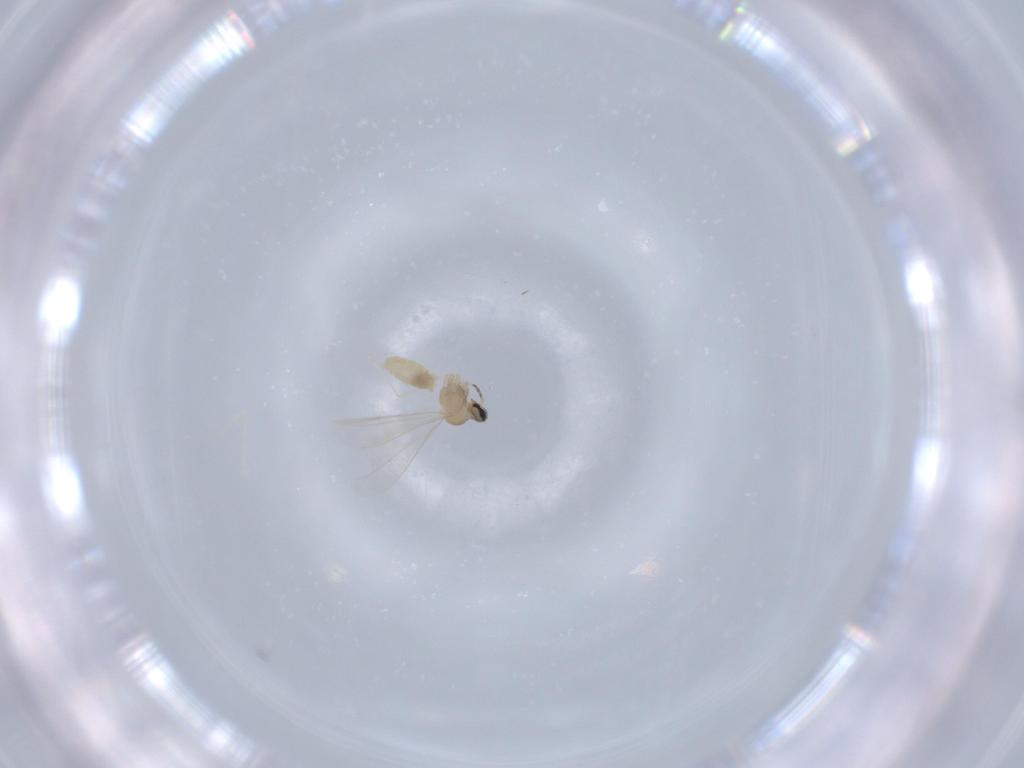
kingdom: Animalia
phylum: Arthropoda
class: Insecta
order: Diptera
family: Cecidomyiidae
